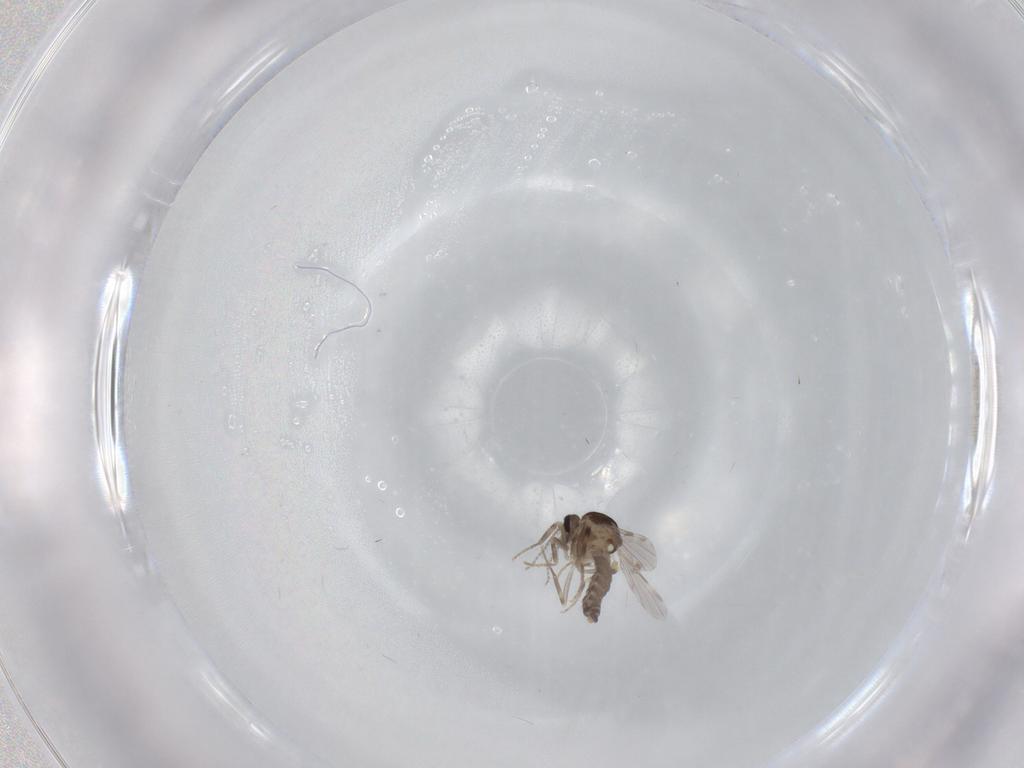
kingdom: Animalia
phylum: Arthropoda
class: Insecta
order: Diptera
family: Ceratopogonidae
